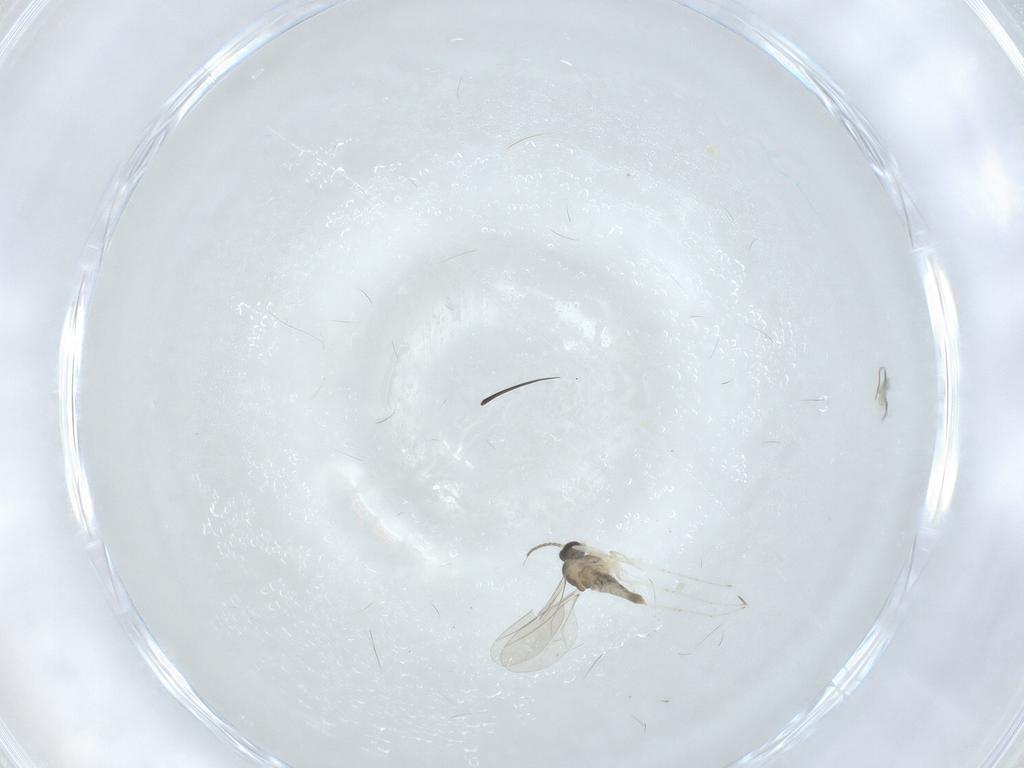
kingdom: Animalia
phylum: Arthropoda
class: Insecta
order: Diptera
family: Cecidomyiidae
